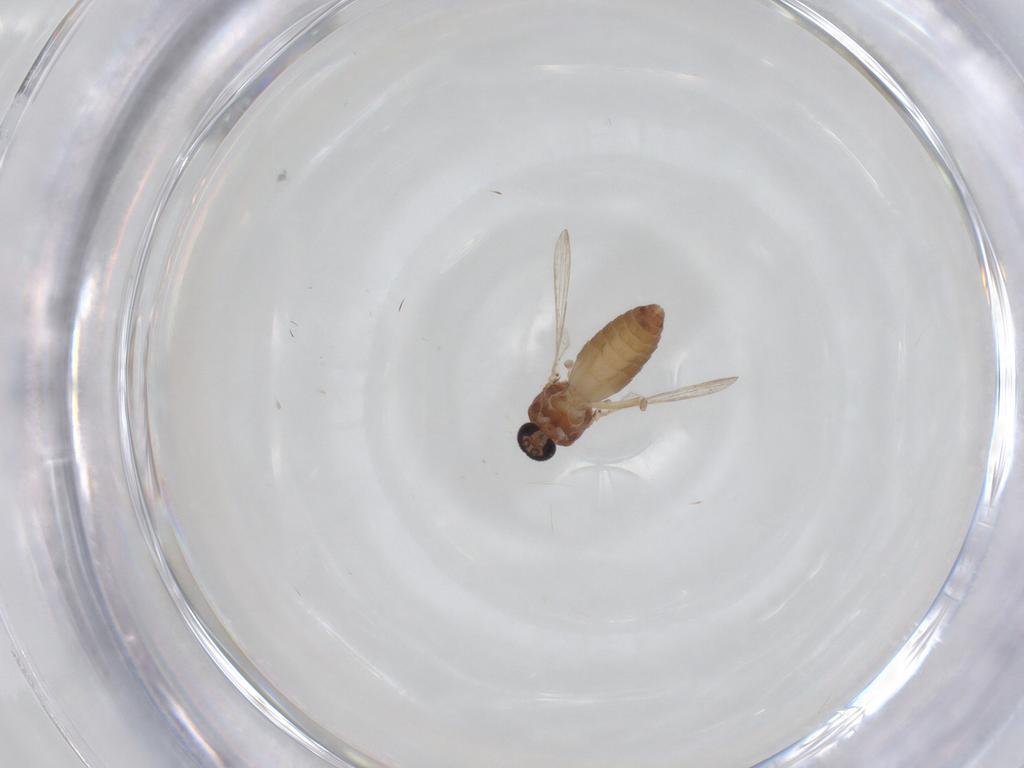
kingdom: Animalia
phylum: Arthropoda
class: Insecta
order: Diptera
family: Ceratopogonidae
